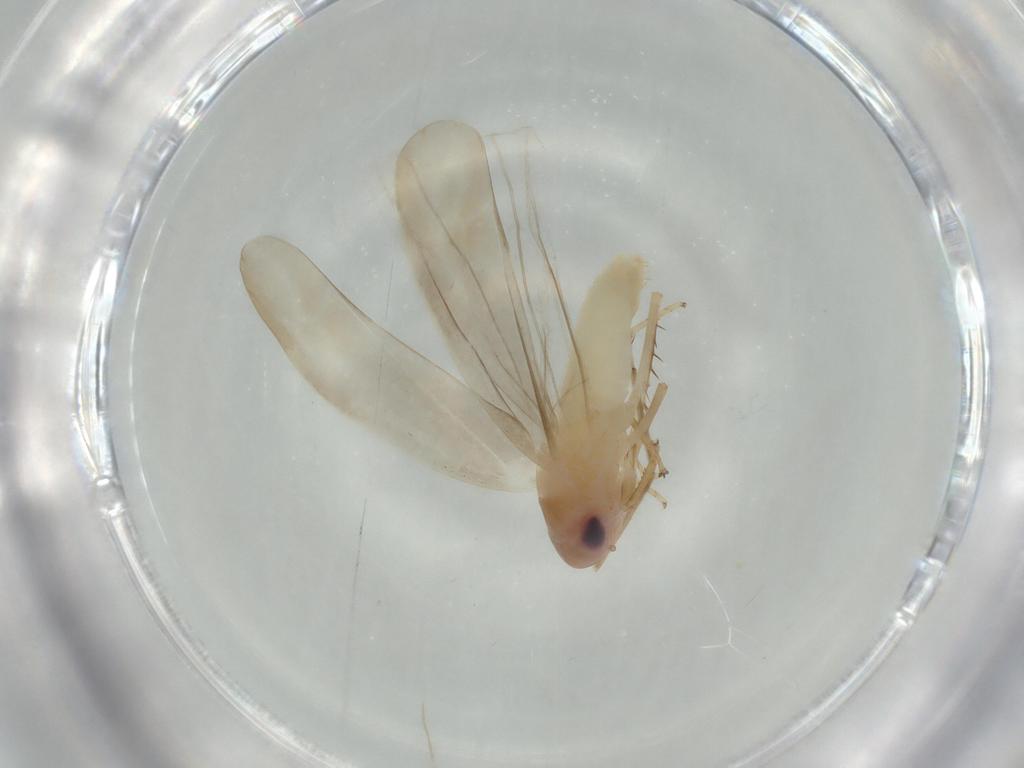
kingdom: Animalia
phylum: Arthropoda
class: Insecta
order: Hemiptera
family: Cicadellidae
